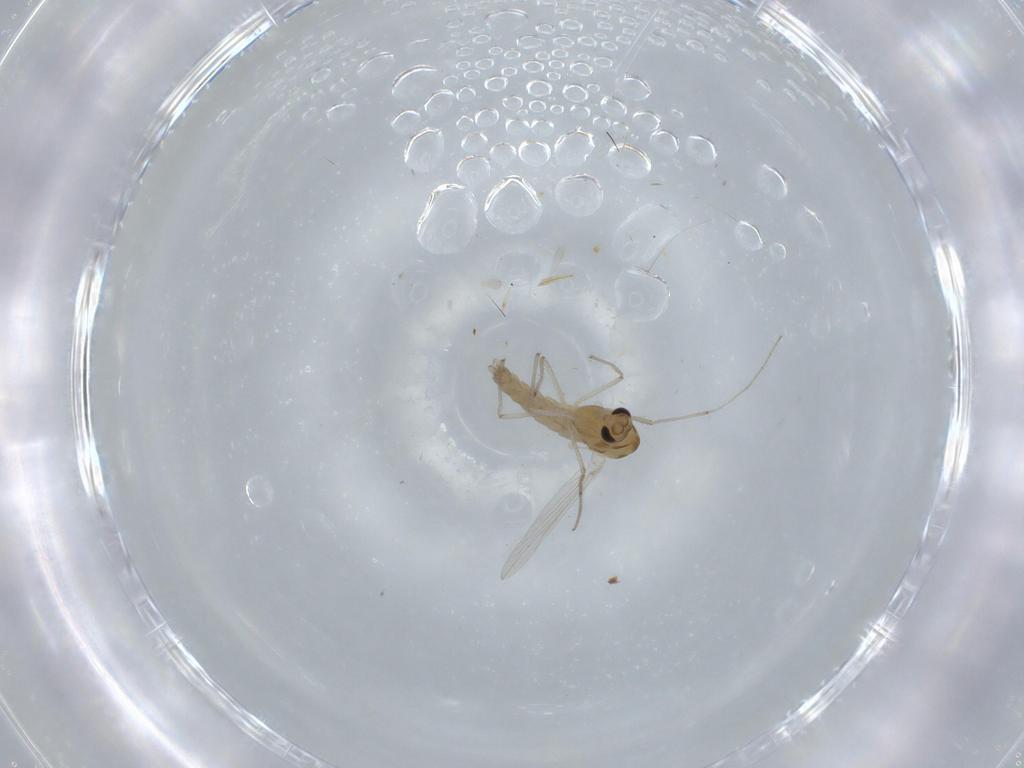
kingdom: Animalia
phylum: Arthropoda
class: Insecta
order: Diptera
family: Chironomidae
